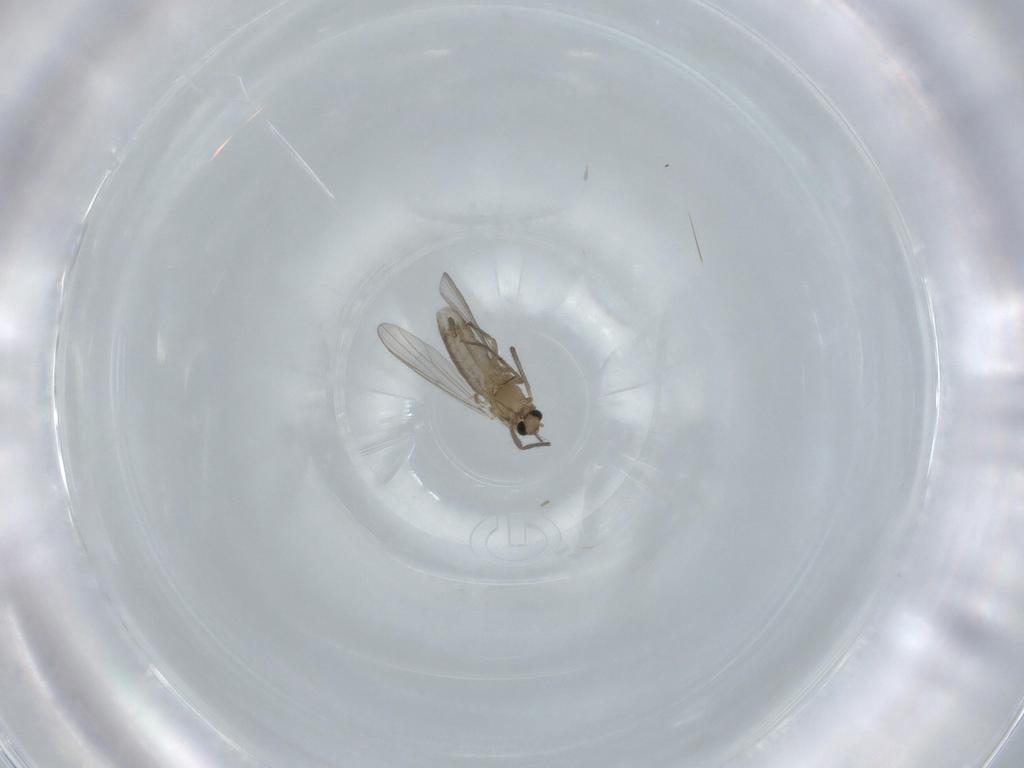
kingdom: Animalia
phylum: Arthropoda
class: Insecta
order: Diptera
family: Chironomidae
